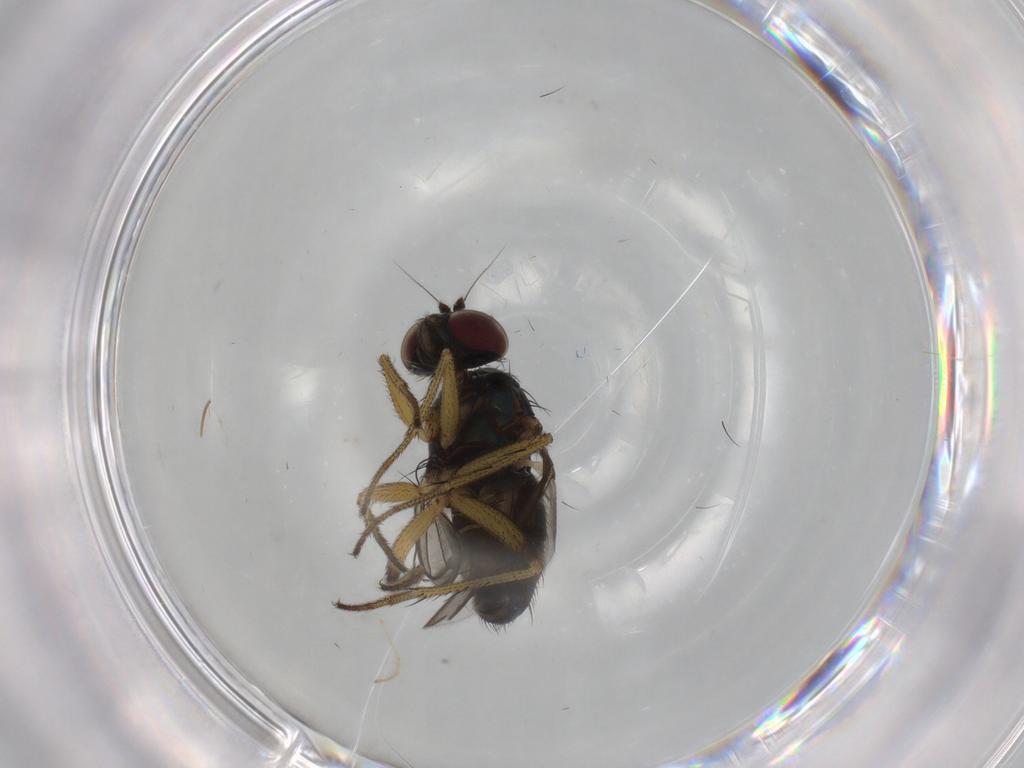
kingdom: Animalia
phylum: Arthropoda
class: Insecta
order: Diptera
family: Dolichopodidae
